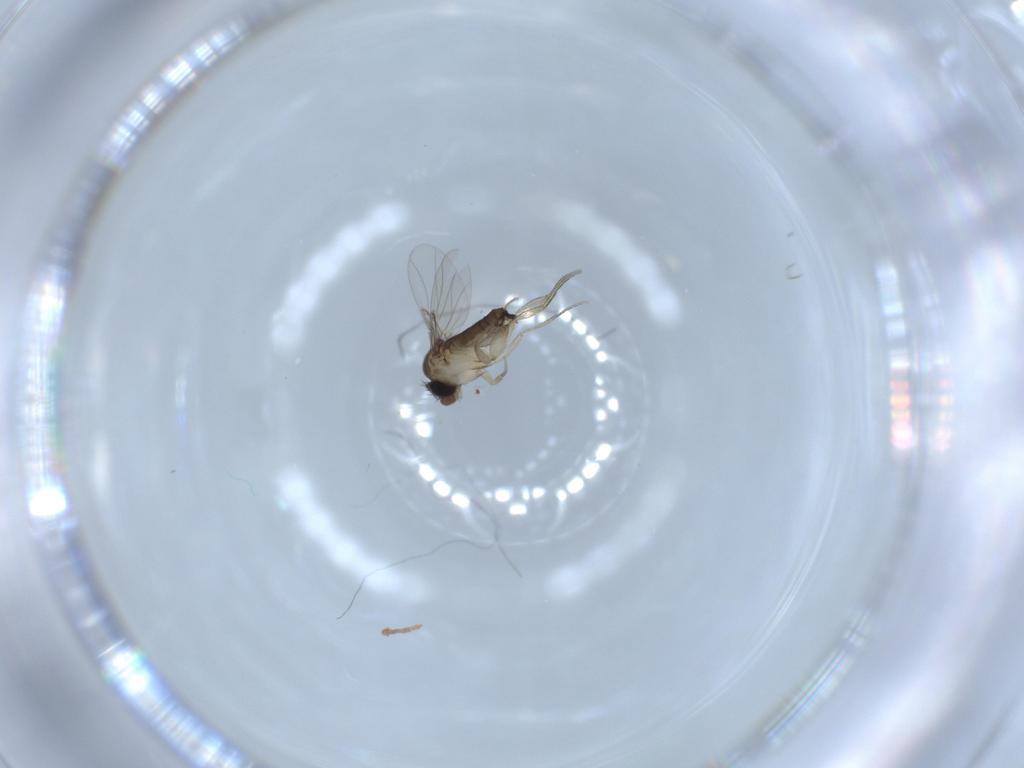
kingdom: Animalia
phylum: Arthropoda
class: Insecta
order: Diptera
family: Phoridae
